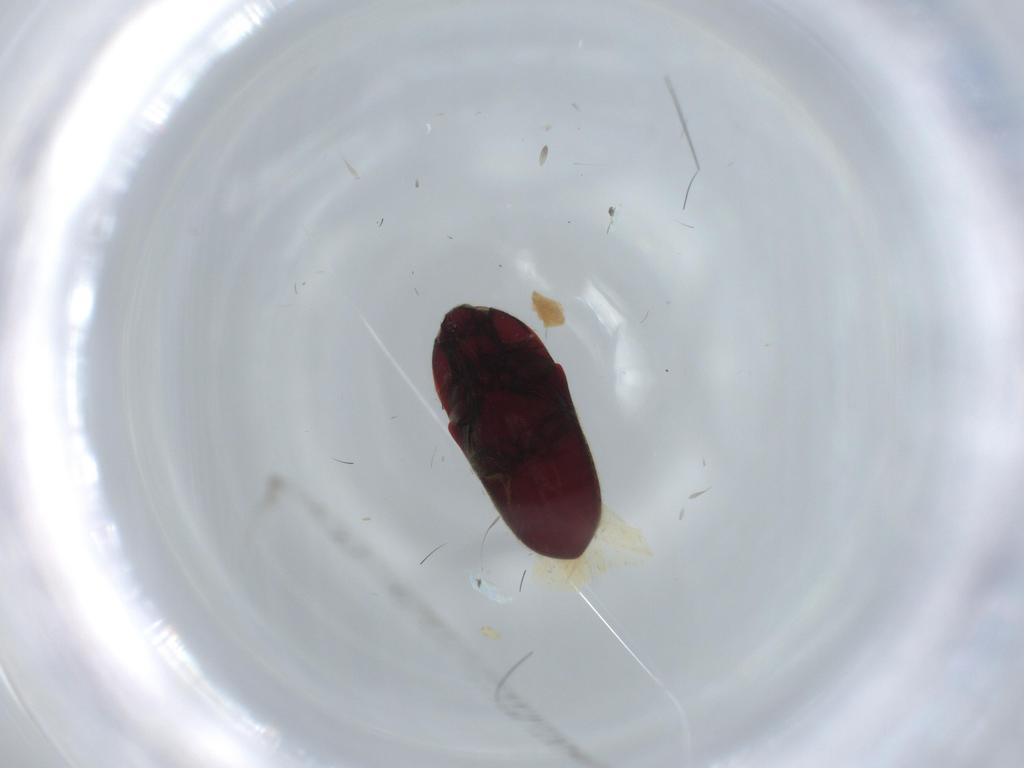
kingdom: Animalia
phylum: Arthropoda
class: Insecta
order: Coleoptera
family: Throscidae
